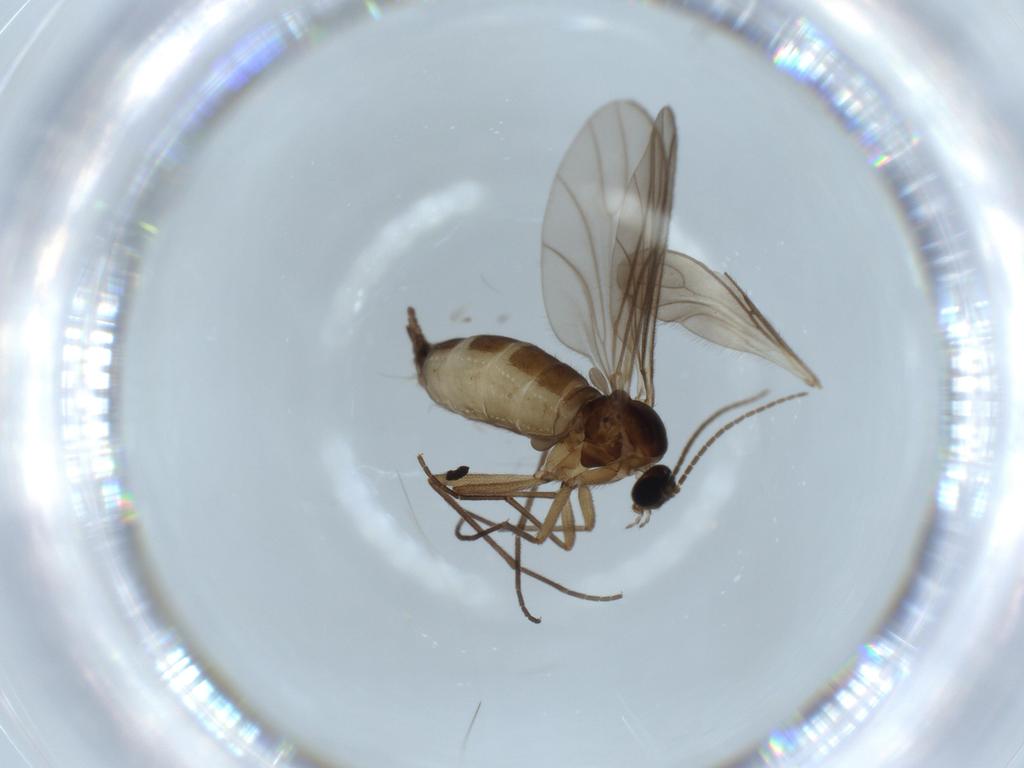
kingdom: Animalia
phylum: Arthropoda
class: Insecta
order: Diptera
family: Sciaridae
